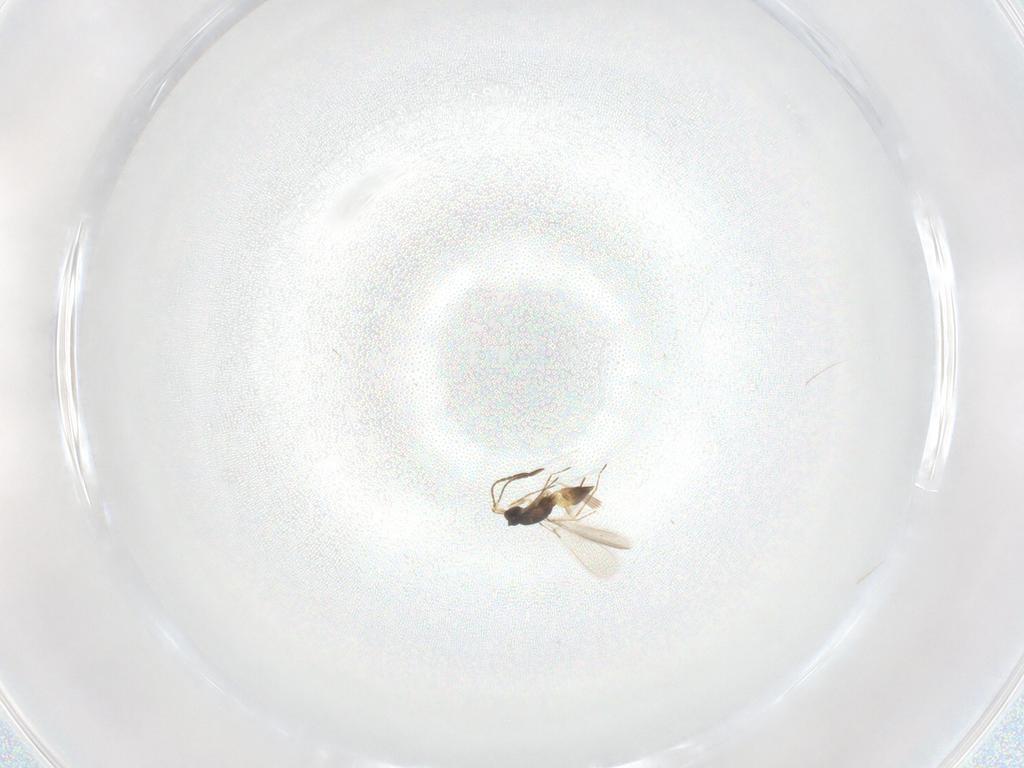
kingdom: Animalia
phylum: Arthropoda
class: Insecta
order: Hymenoptera
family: Mymaridae
